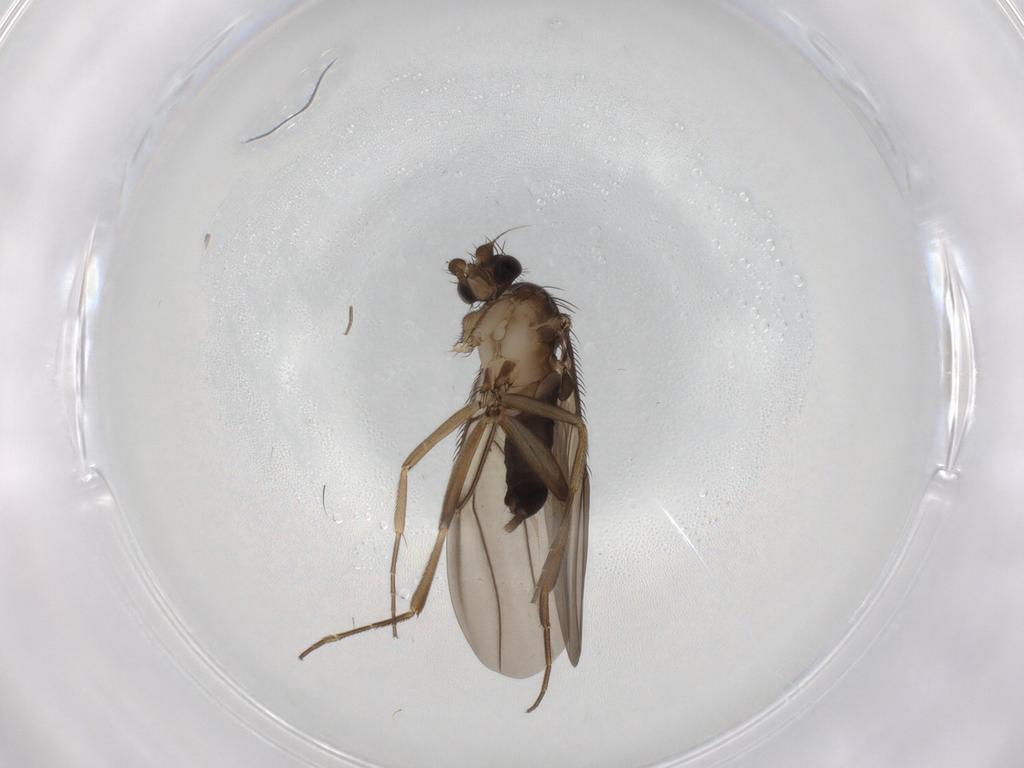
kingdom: Animalia
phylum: Arthropoda
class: Insecta
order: Diptera
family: Phoridae
